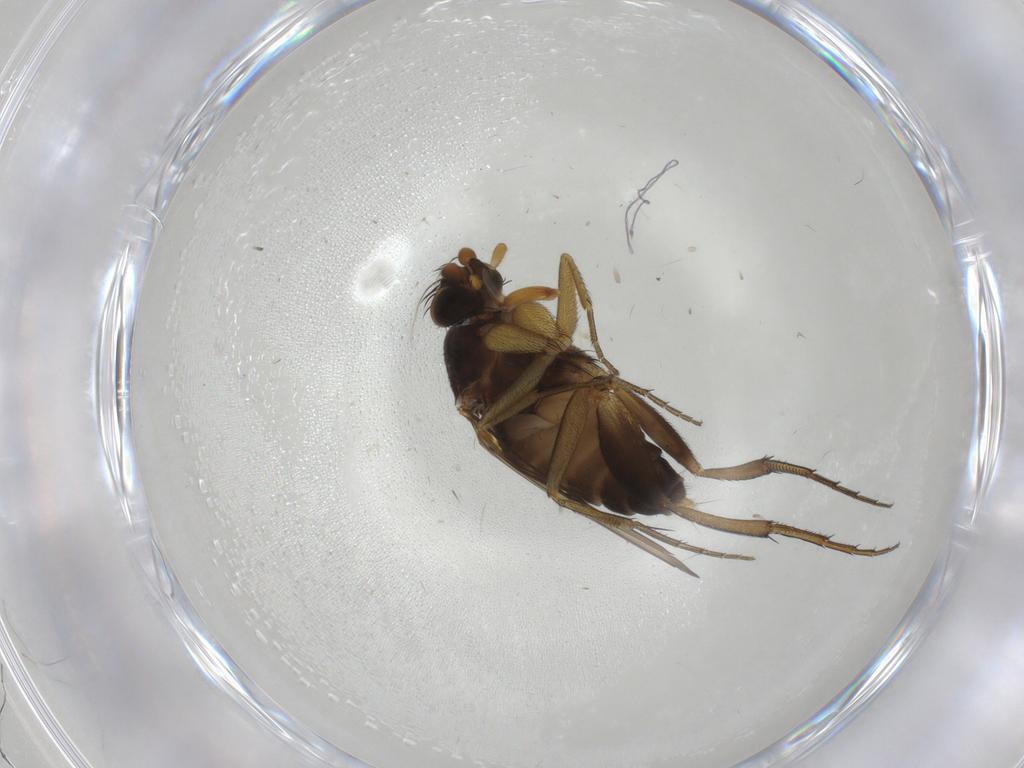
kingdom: Animalia
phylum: Arthropoda
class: Insecta
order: Diptera
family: Phoridae
